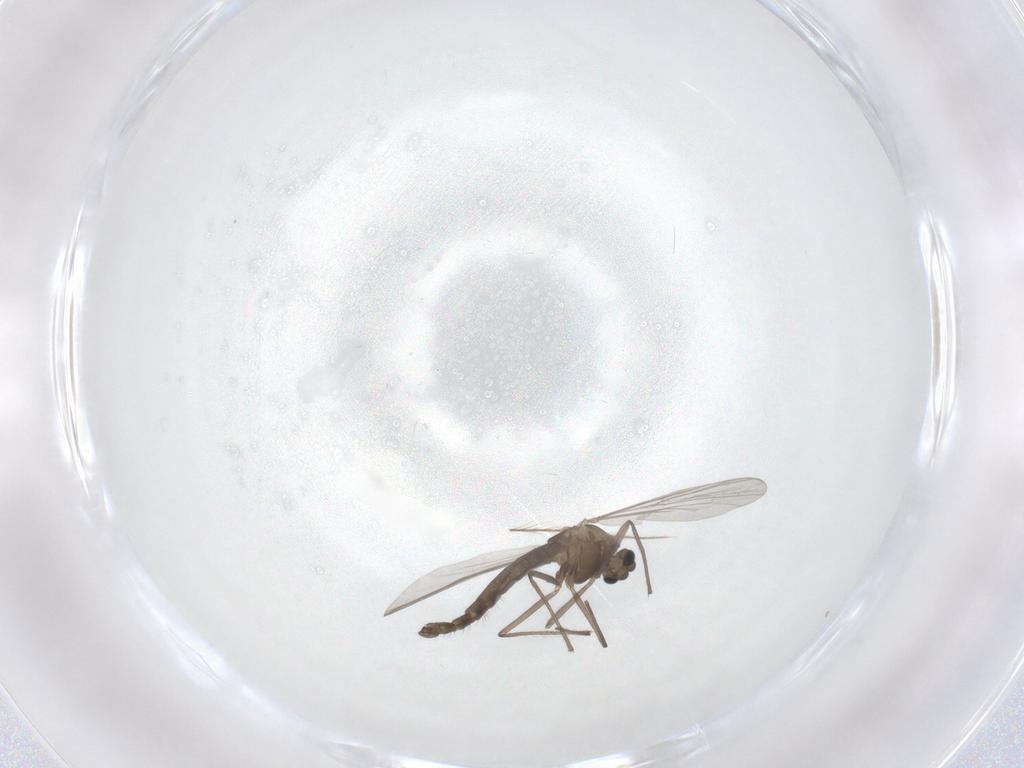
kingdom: Animalia
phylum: Arthropoda
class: Insecta
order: Diptera
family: Chironomidae
